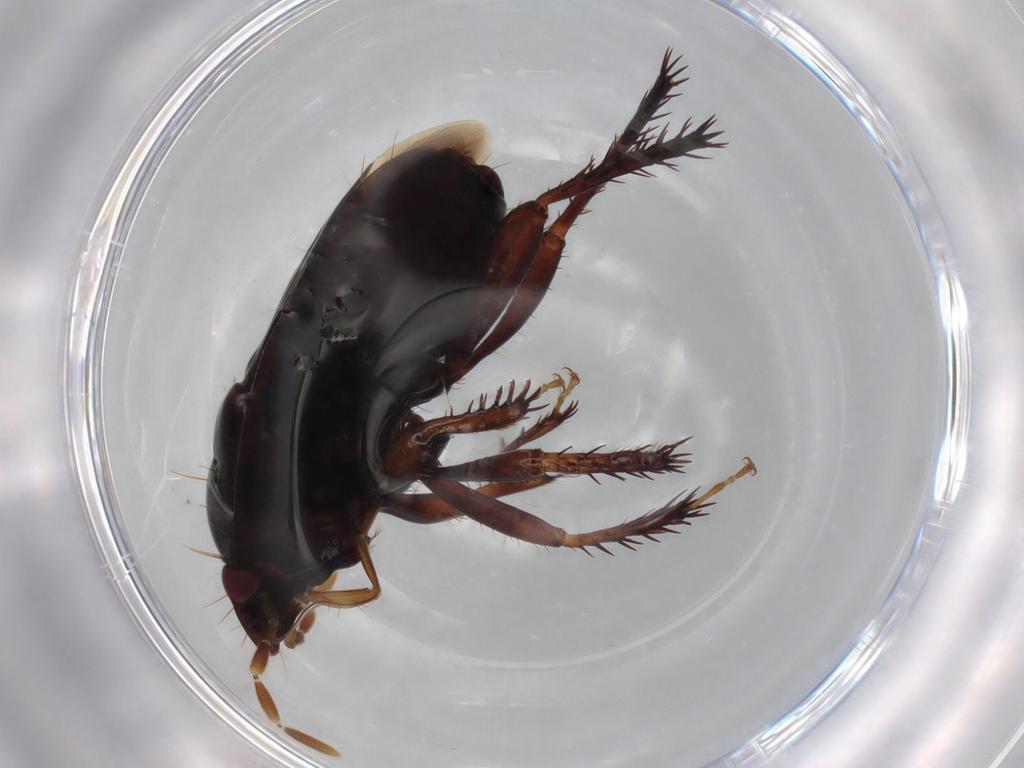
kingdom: Animalia
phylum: Arthropoda
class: Insecta
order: Hemiptera
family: Cydnidae
